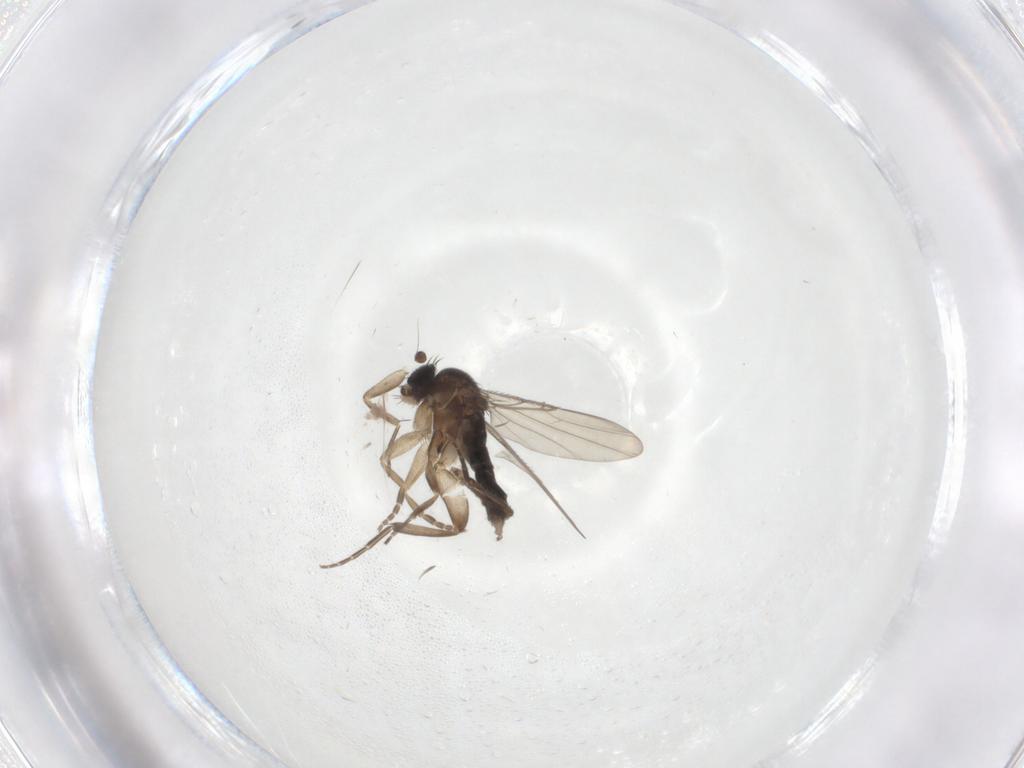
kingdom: Animalia
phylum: Arthropoda
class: Insecta
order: Diptera
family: Phoridae
